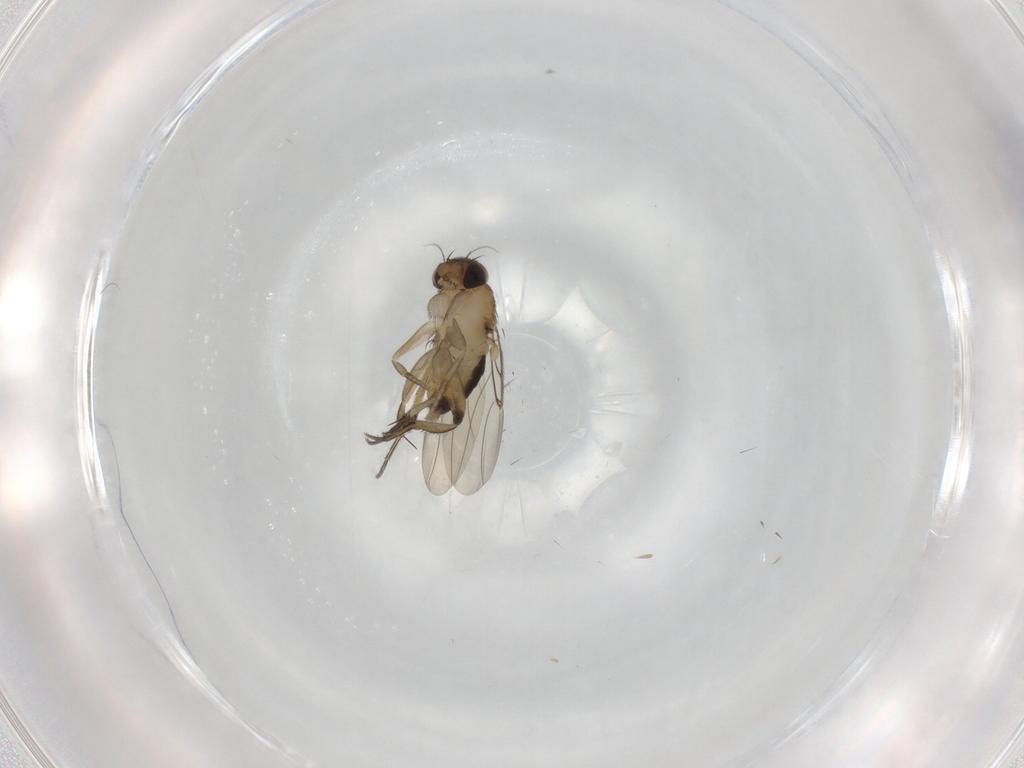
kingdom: Animalia
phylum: Arthropoda
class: Insecta
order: Diptera
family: Phoridae
